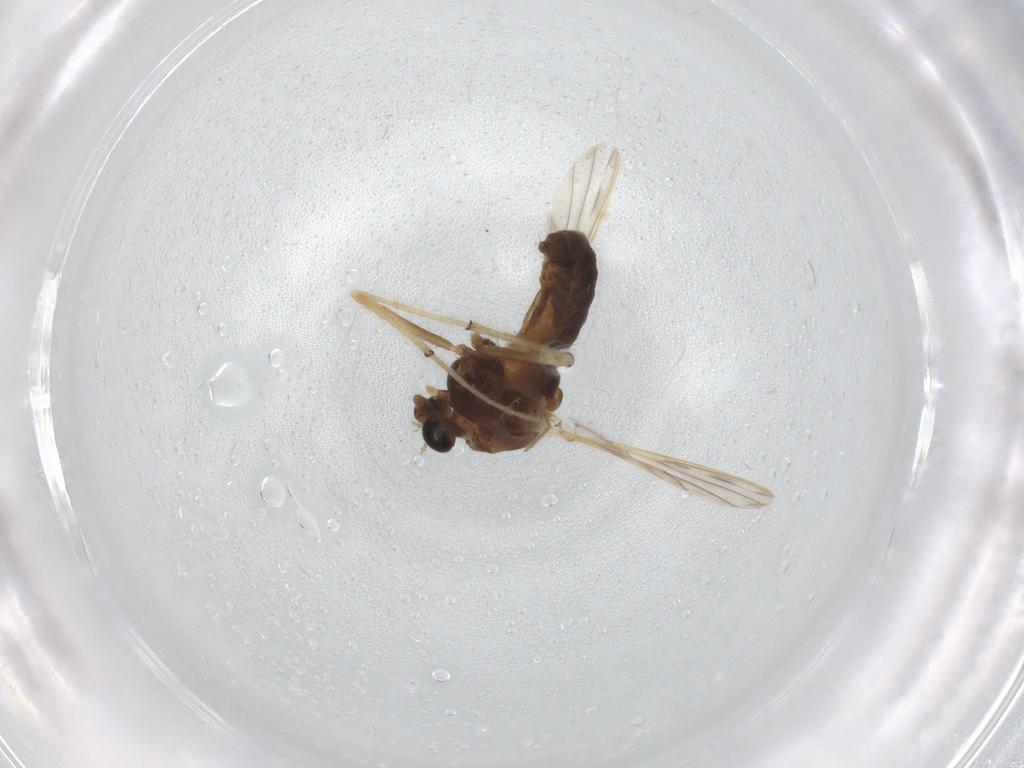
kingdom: Animalia
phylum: Arthropoda
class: Insecta
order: Diptera
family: Chironomidae
